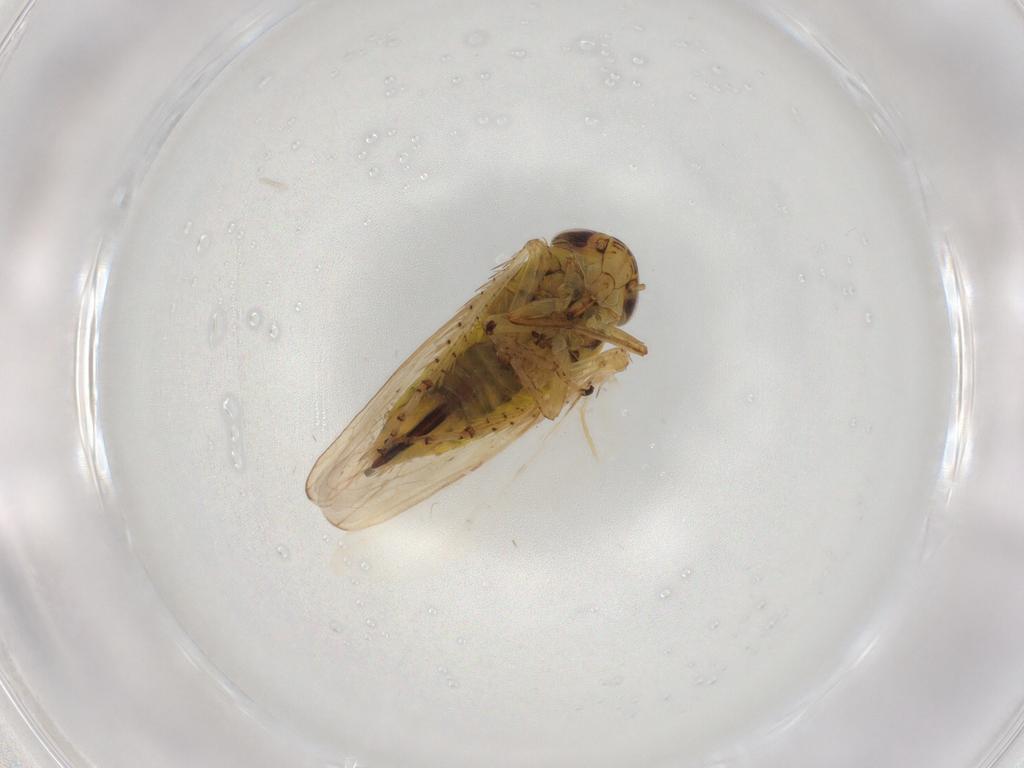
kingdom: Animalia
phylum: Arthropoda
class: Insecta
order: Hemiptera
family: Cicadellidae
